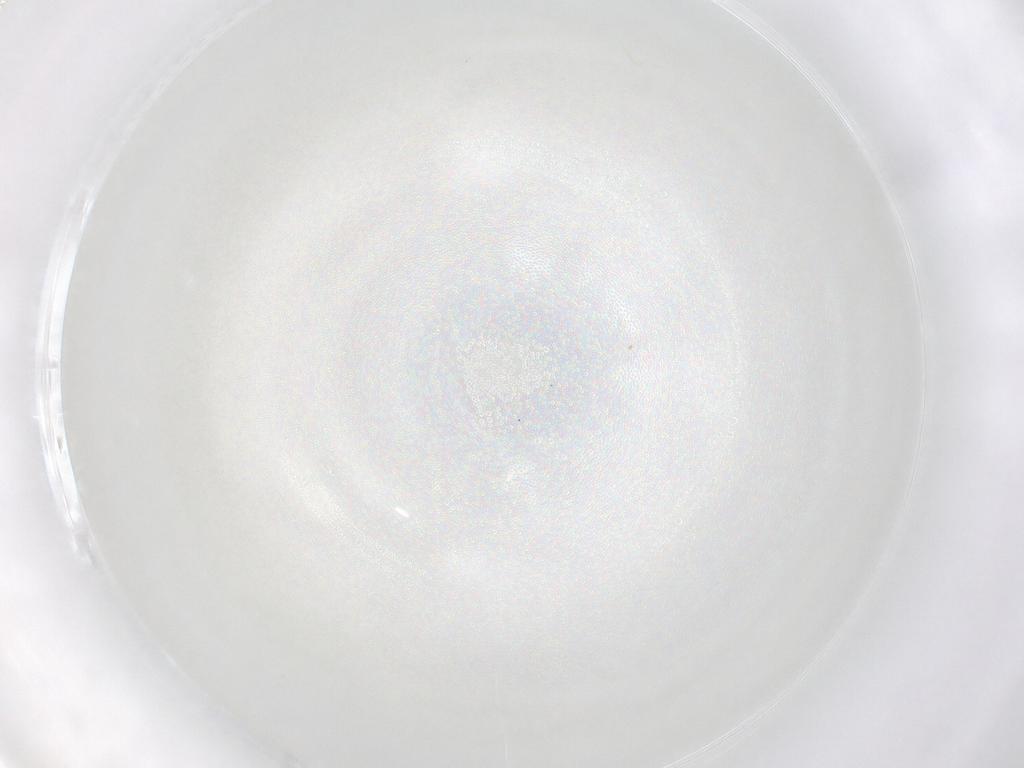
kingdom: Animalia
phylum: Arthropoda
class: Insecta
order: Diptera
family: Chironomidae
